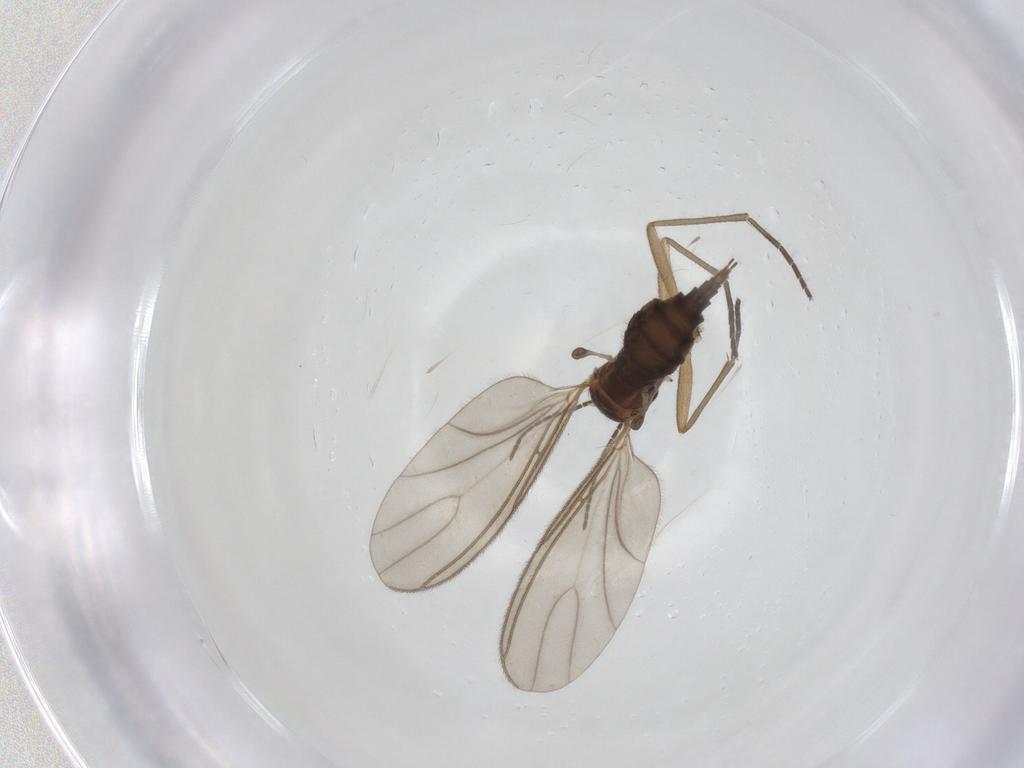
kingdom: Animalia
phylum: Arthropoda
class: Insecta
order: Diptera
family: Sciaridae
